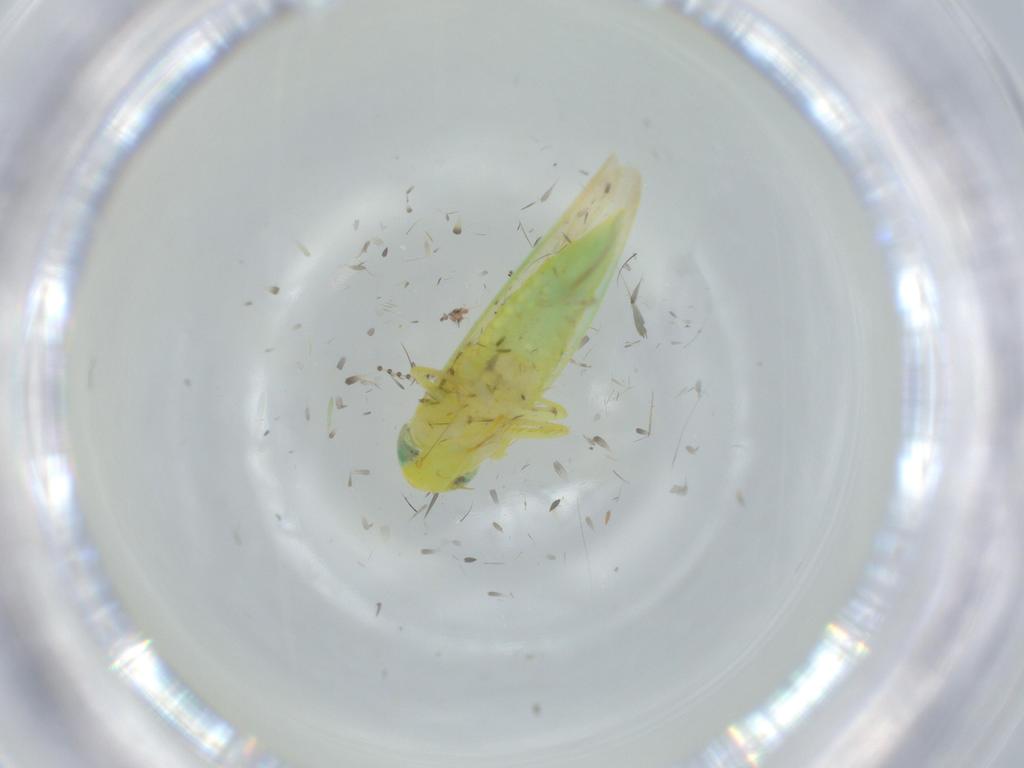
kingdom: Animalia
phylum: Arthropoda
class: Insecta
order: Hemiptera
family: Cicadellidae
